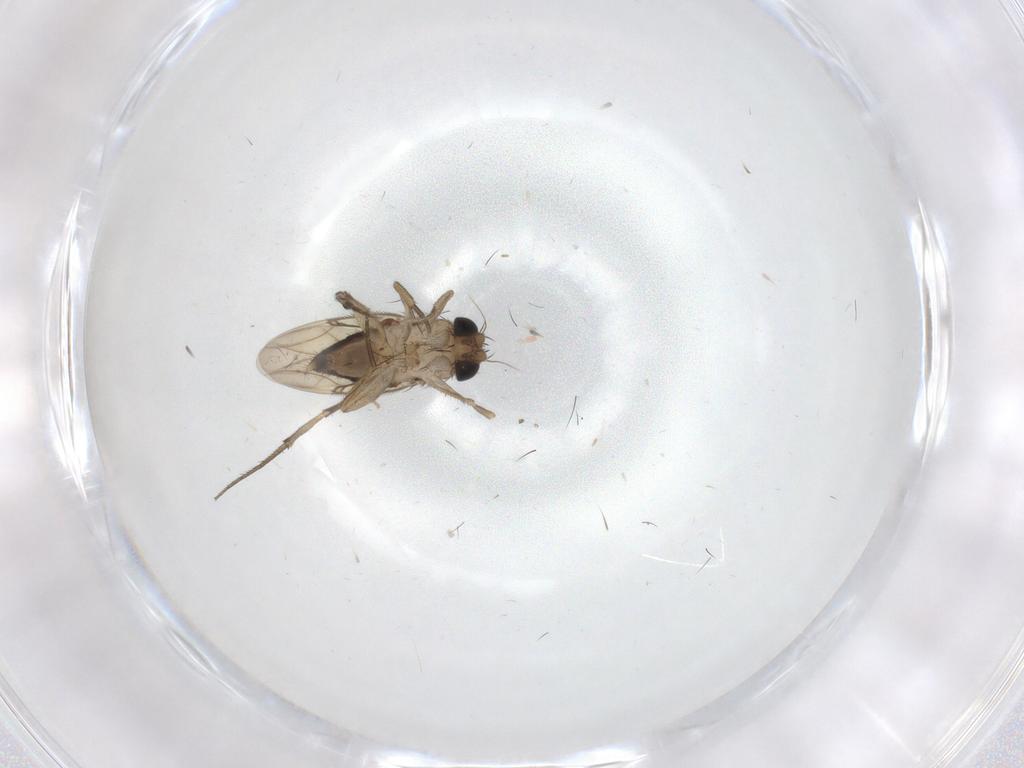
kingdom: Animalia
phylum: Arthropoda
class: Insecta
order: Diptera
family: Phoridae
